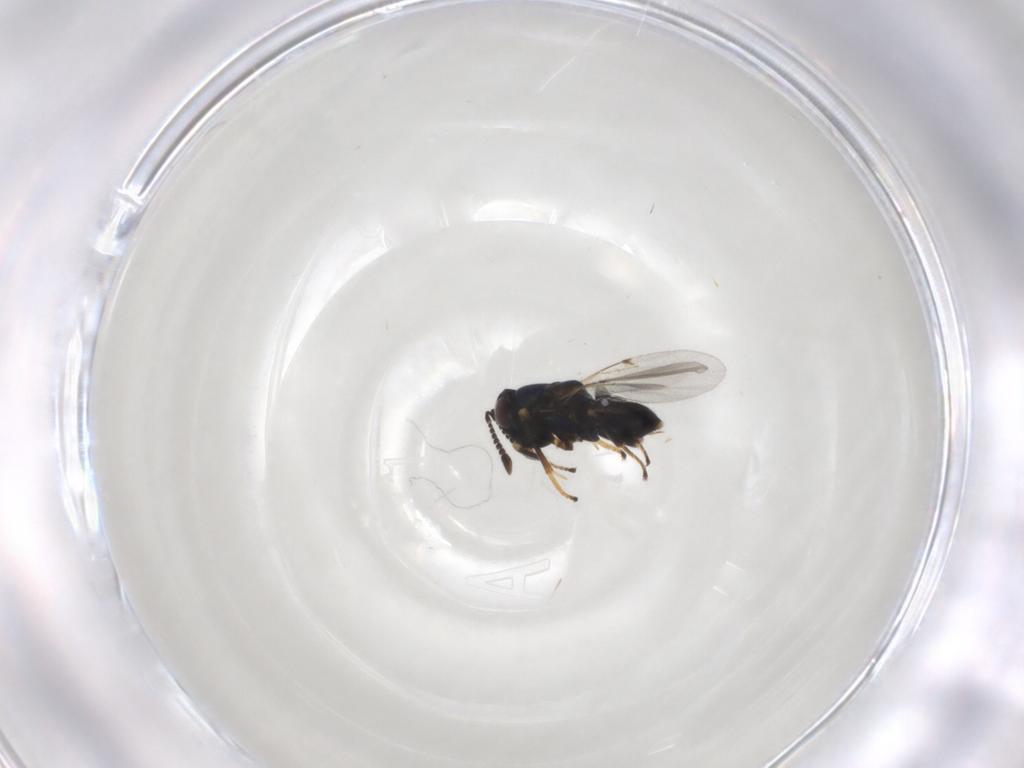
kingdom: Animalia
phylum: Arthropoda
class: Insecta
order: Hymenoptera
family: Encyrtidae
